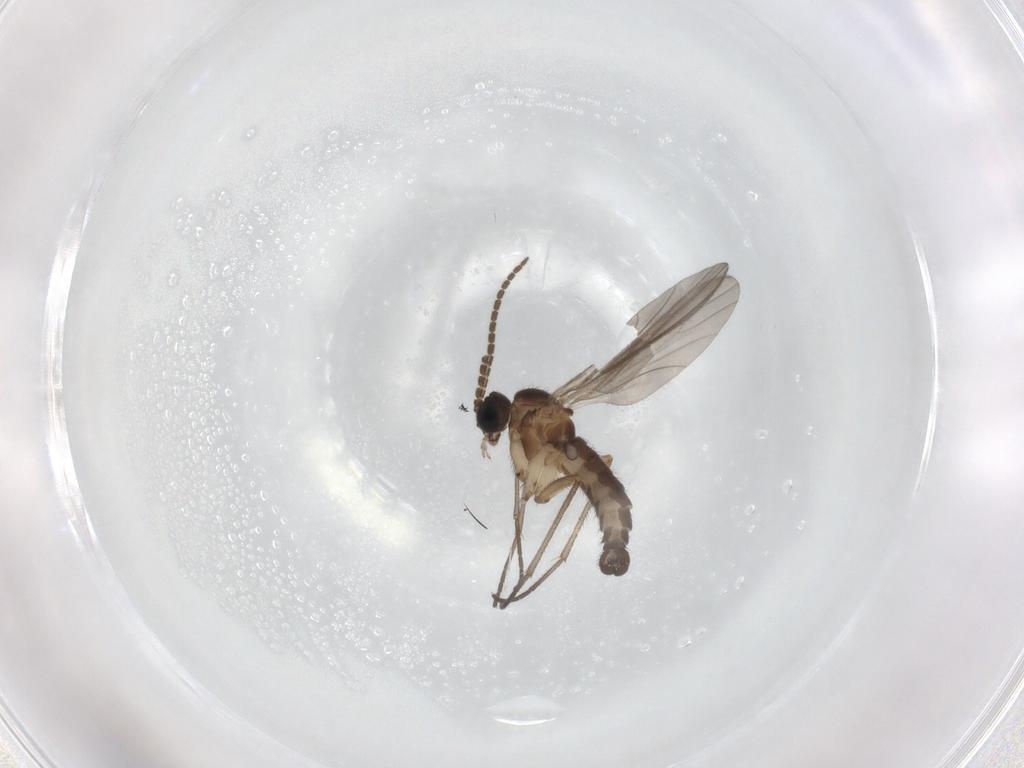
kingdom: Animalia
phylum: Arthropoda
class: Insecta
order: Diptera
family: Sciaridae
